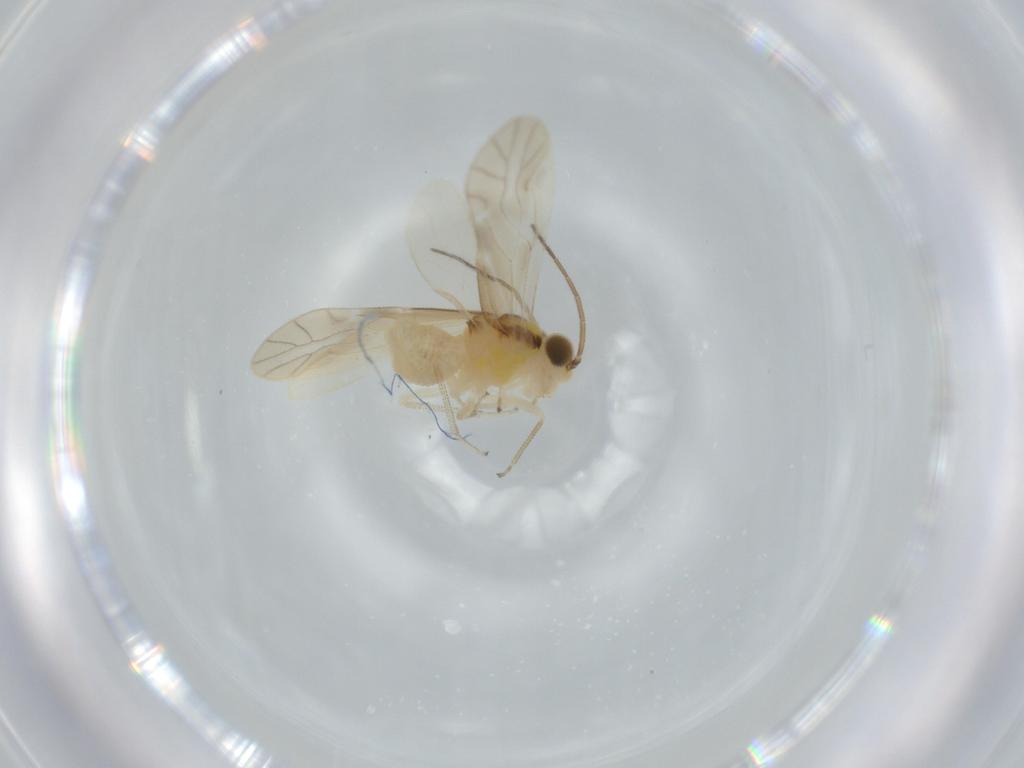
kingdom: Animalia
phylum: Arthropoda
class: Insecta
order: Psocodea
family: Caeciliusidae
